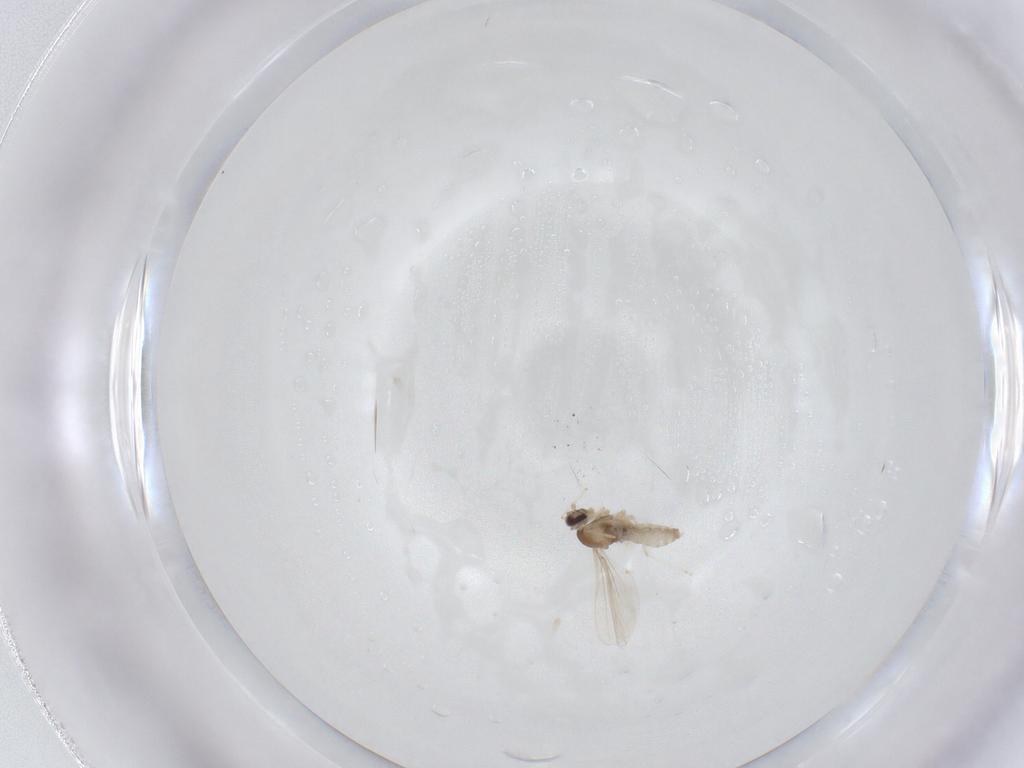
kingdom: Animalia
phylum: Arthropoda
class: Insecta
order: Diptera
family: Cecidomyiidae
